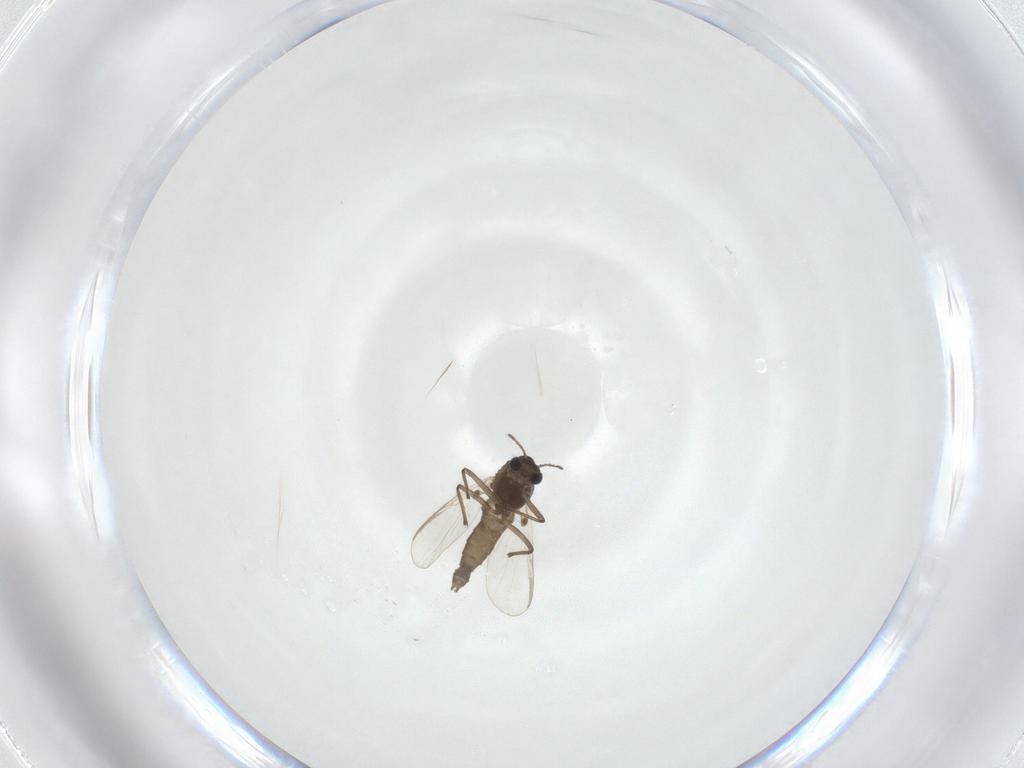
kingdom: Animalia
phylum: Arthropoda
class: Insecta
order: Diptera
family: Chironomidae
